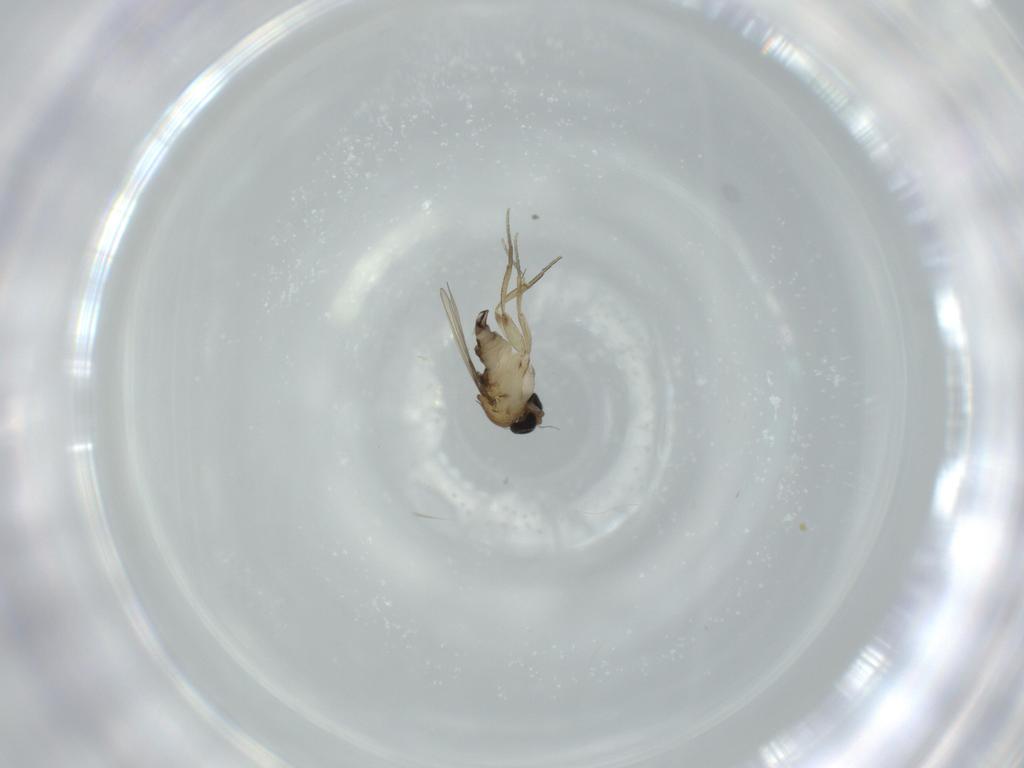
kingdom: Animalia
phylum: Arthropoda
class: Insecta
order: Diptera
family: Phoridae
